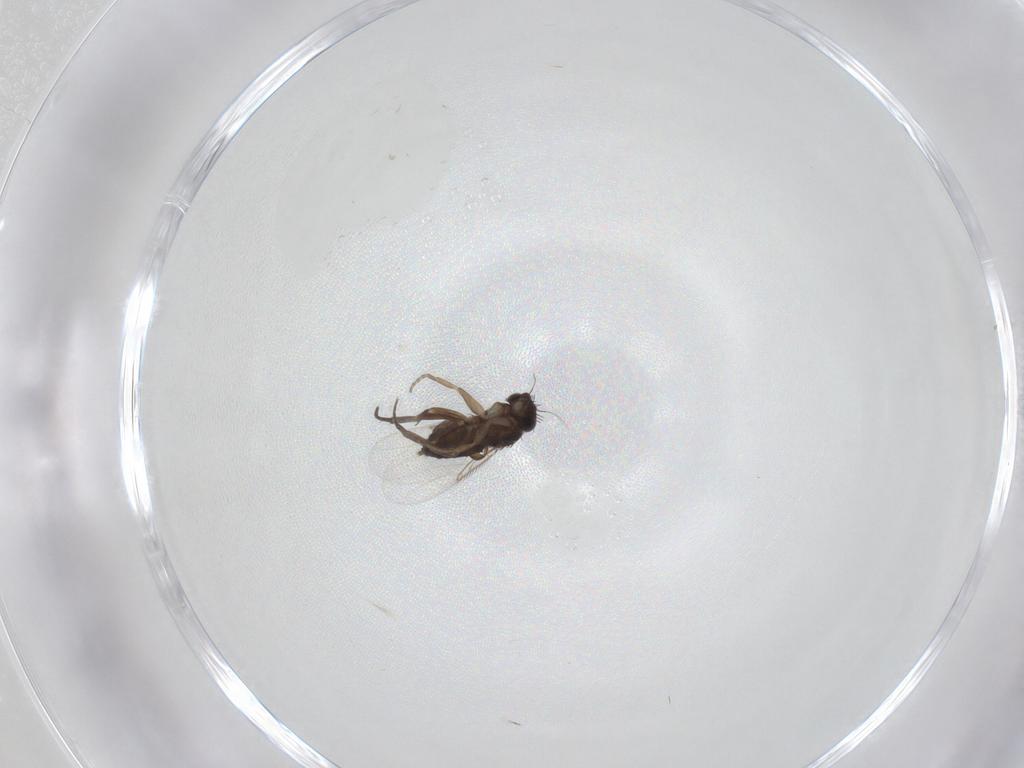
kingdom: Animalia
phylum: Arthropoda
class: Insecta
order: Diptera
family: Phoridae
